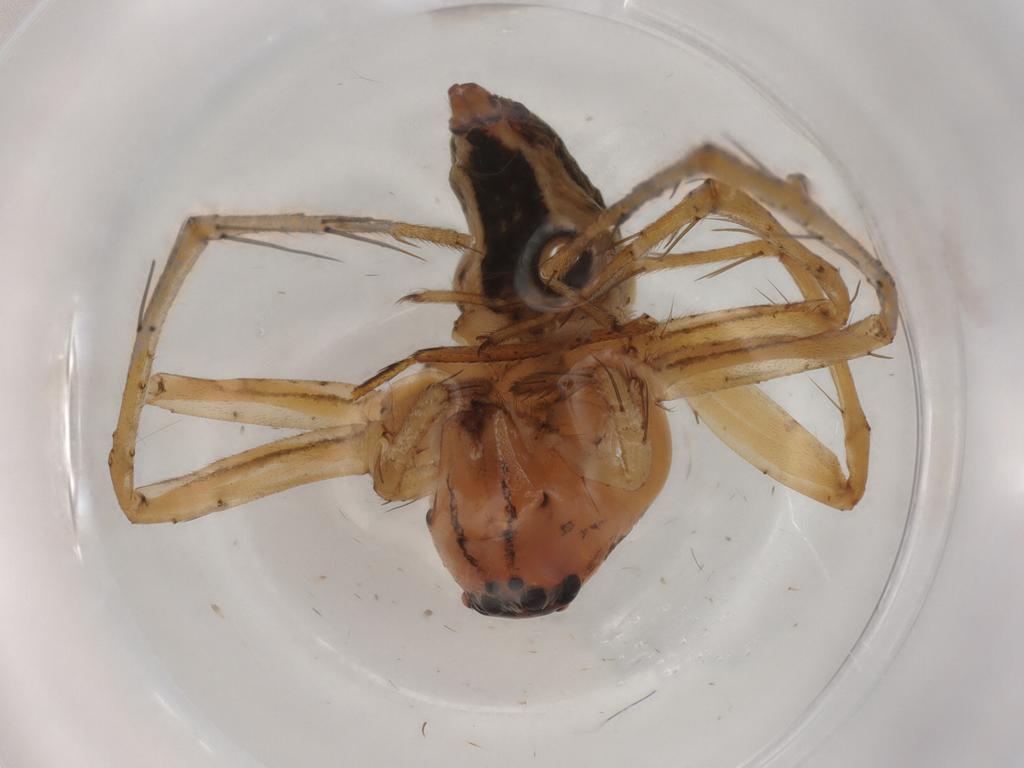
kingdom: Animalia
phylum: Arthropoda
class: Arachnida
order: Araneae
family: Oxyopidae
